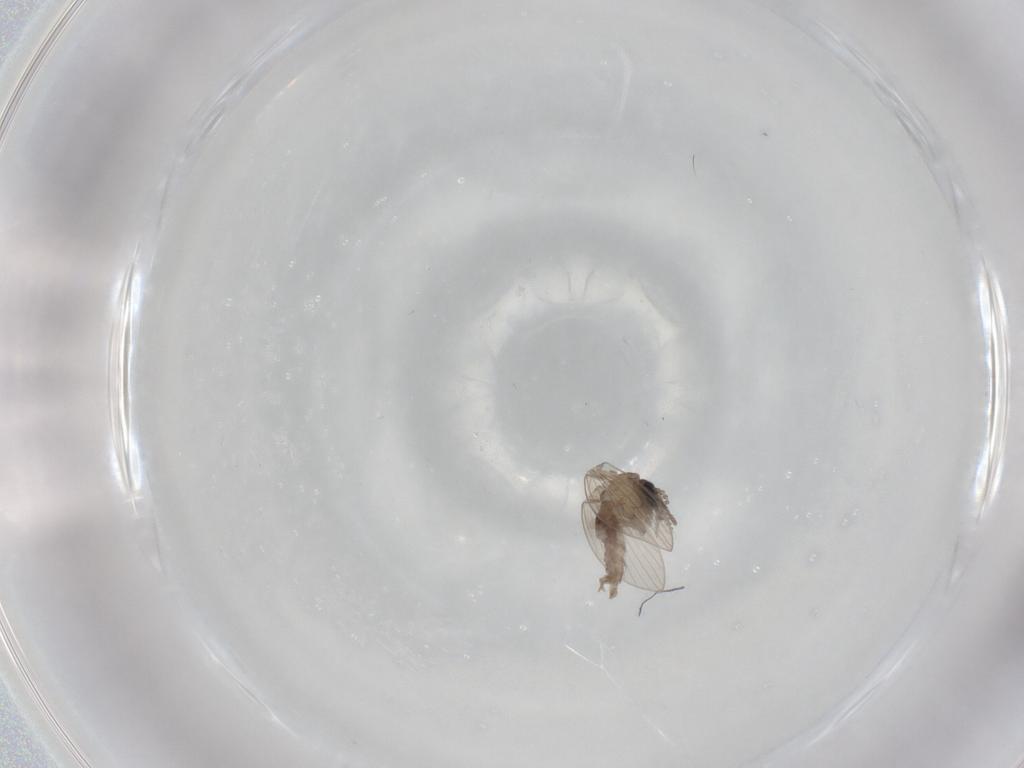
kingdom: Animalia
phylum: Arthropoda
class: Insecta
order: Diptera
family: Psychodidae
